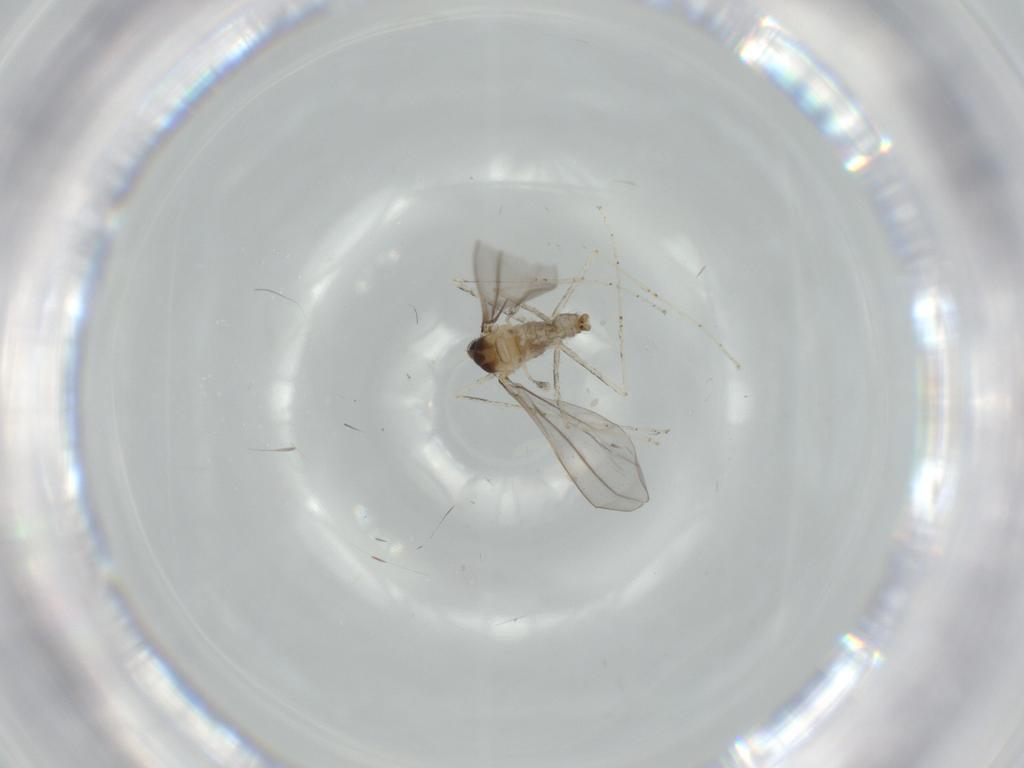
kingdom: Animalia
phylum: Arthropoda
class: Insecta
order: Diptera
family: Cecidomyiidae
